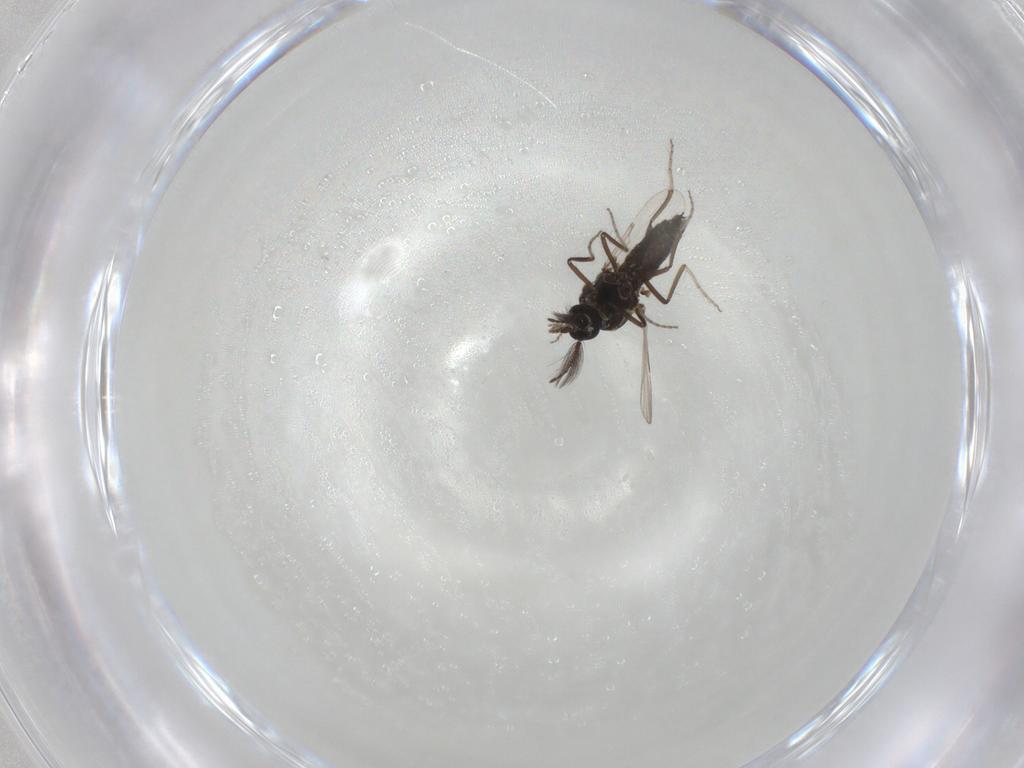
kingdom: Animalia
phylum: Arthropoda
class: Insecta
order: Diptera
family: Ceratopogonidae
